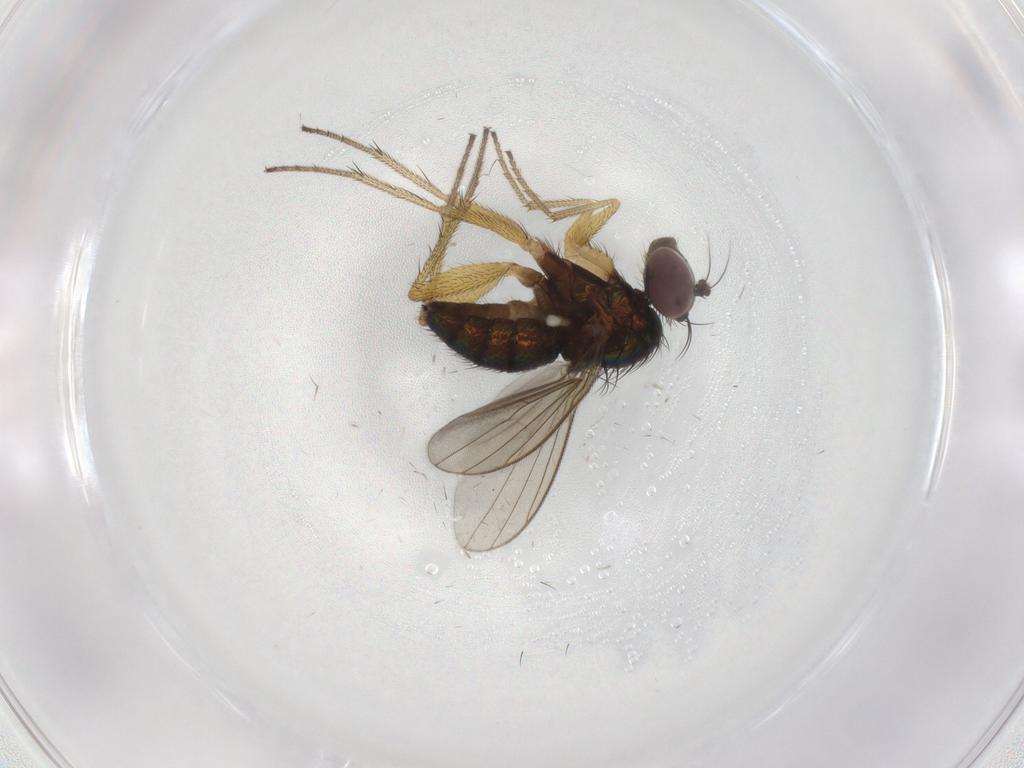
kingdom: Animalia
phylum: Arthropoda
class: Insecta
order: Diptera
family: Dolichopodidae
